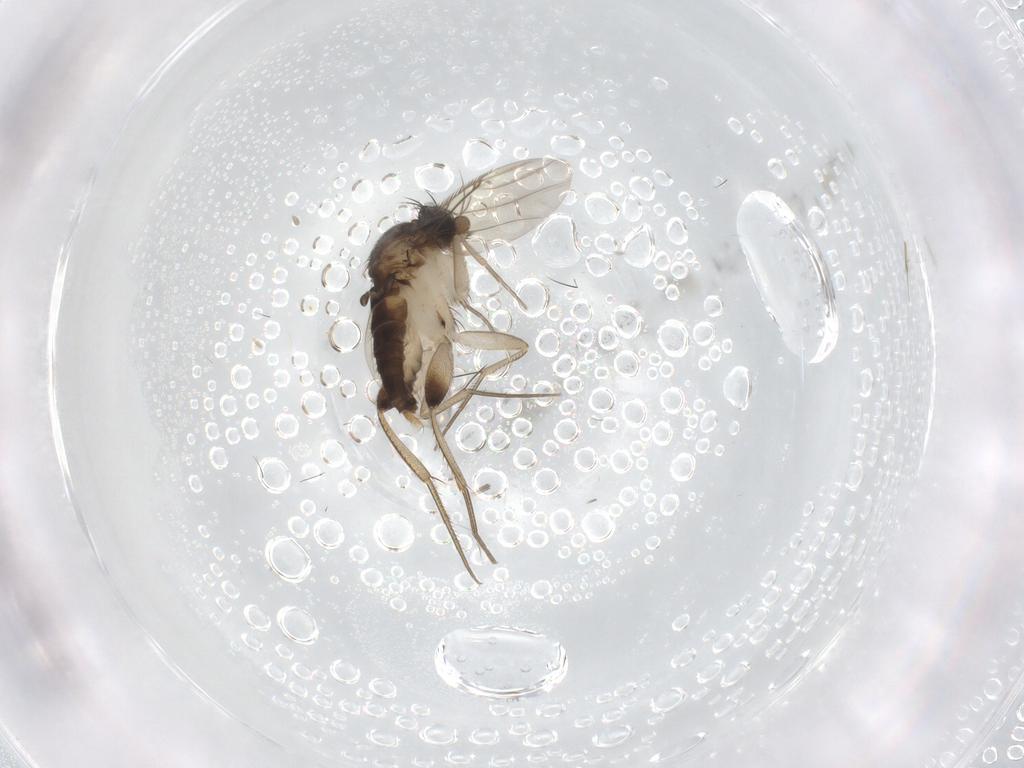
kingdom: Animalia
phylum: Arthropoda
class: Insecta
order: Diptera
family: Phoridae
